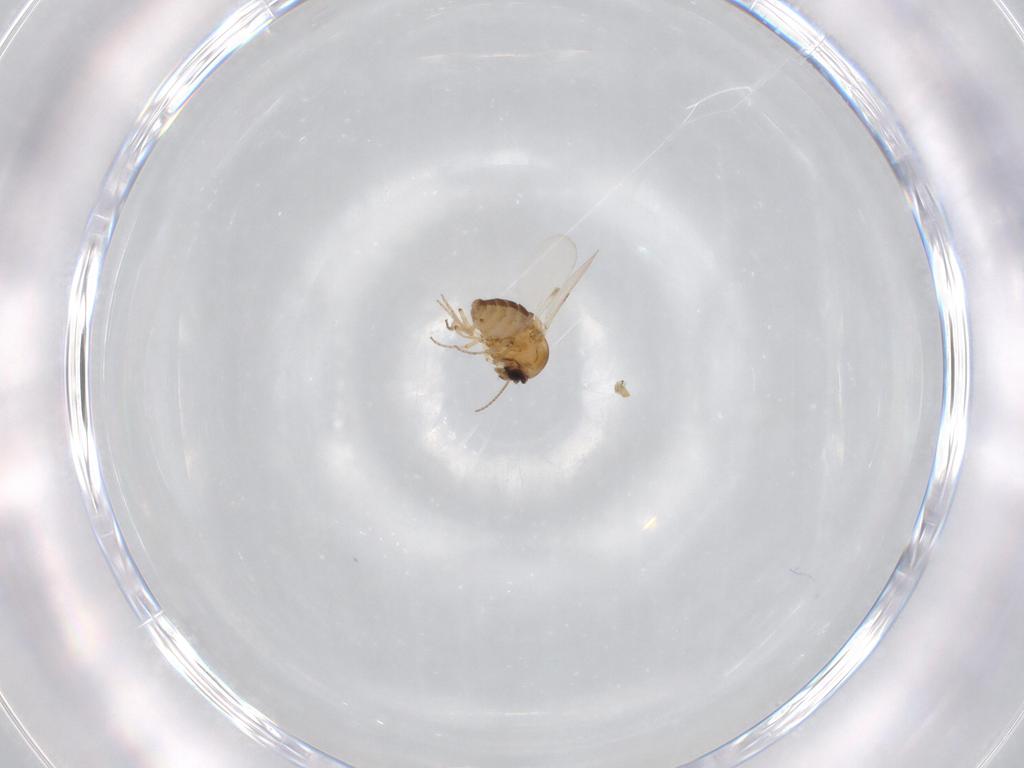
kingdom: Animalia
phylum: Arthropoda
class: Insecta
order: Diptera
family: Ceratopogonidae
